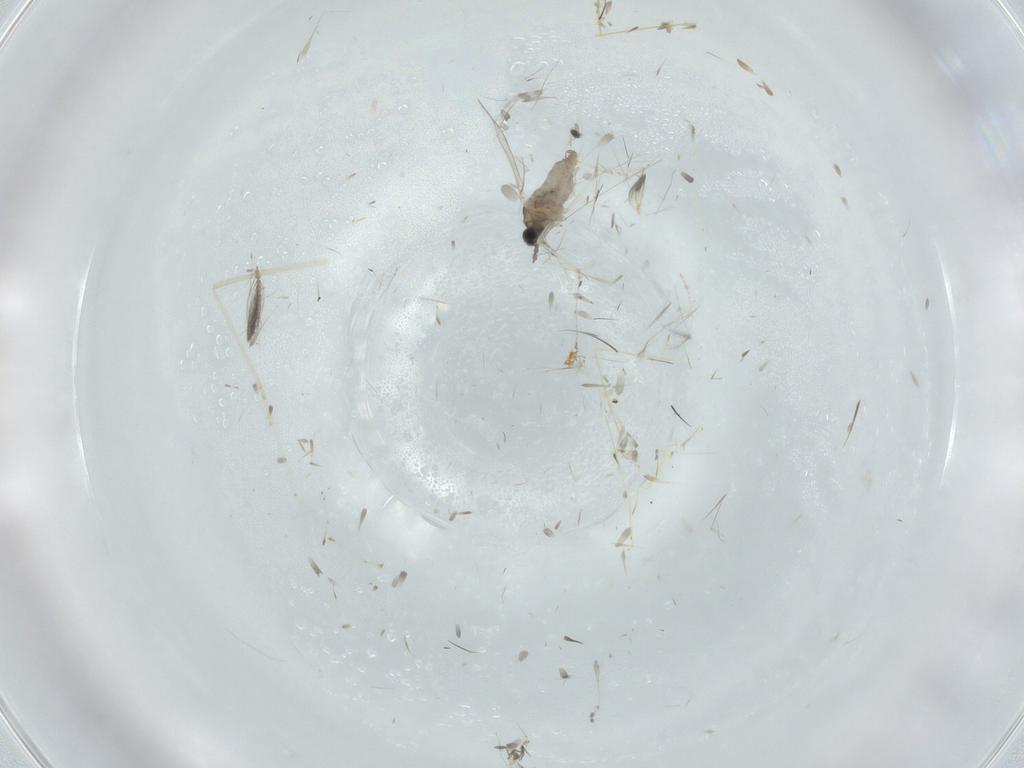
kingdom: Animalia
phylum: Arthropoda
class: Insecta
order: Diptera
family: Cecidomyiidae
